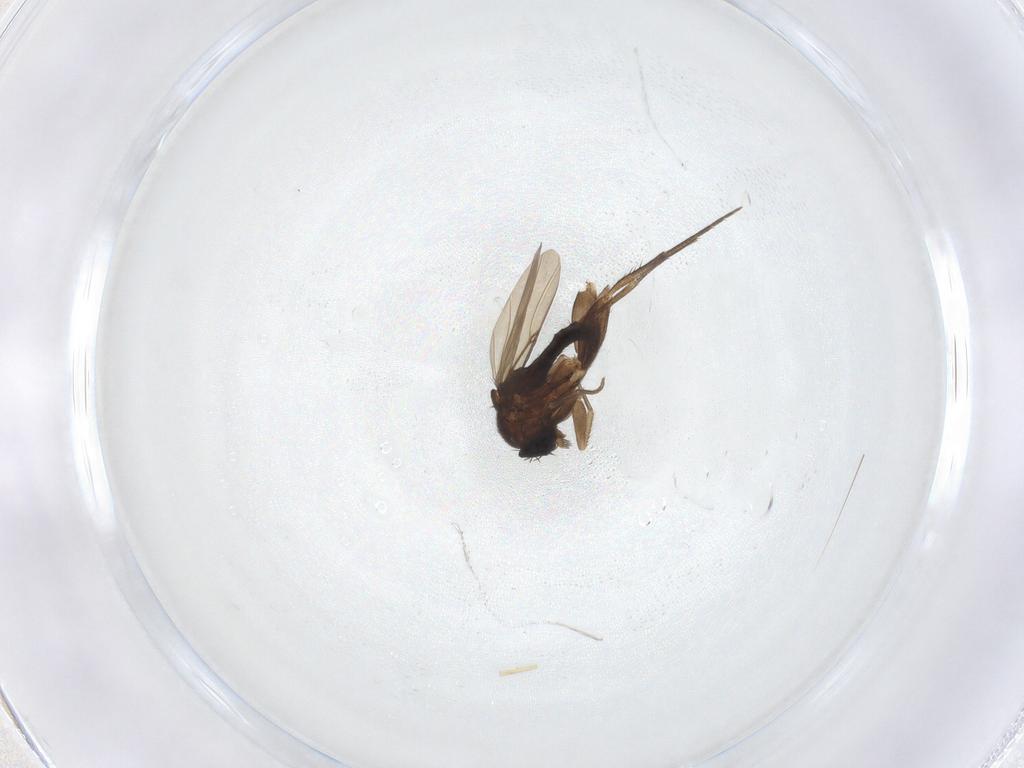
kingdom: Animalia
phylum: Arthropoda
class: Insecta
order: Diptera
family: Phoridae
